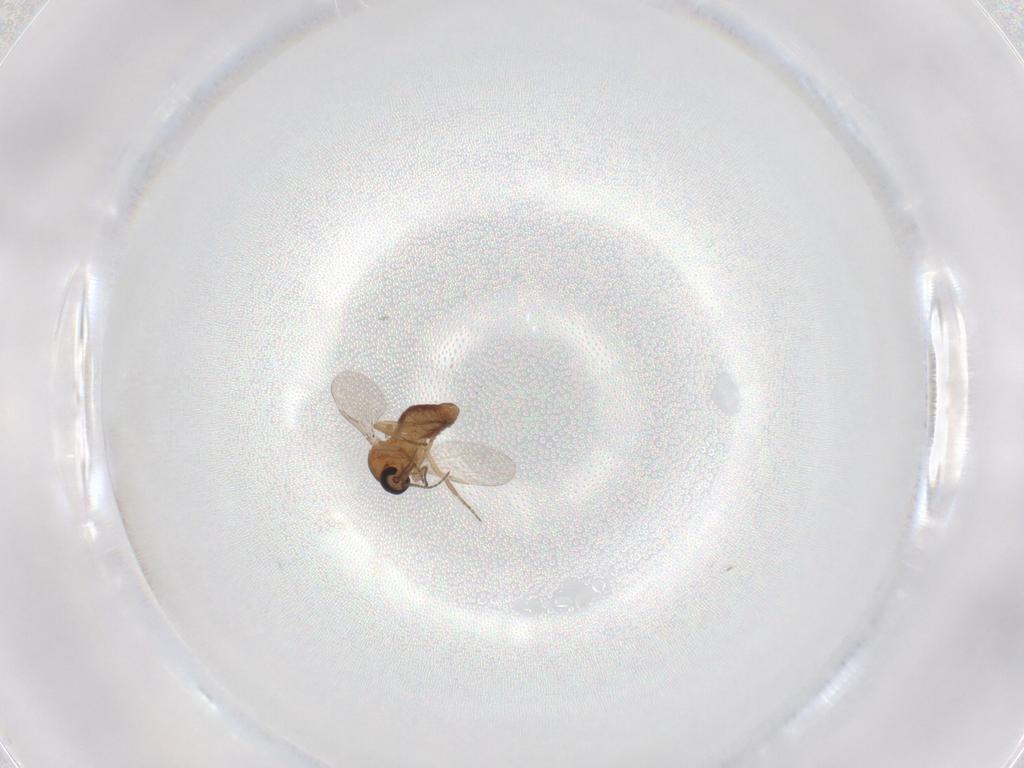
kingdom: Animalia
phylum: Arthropoda
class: Insecta
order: Diptera
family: Ceratopogonidae
